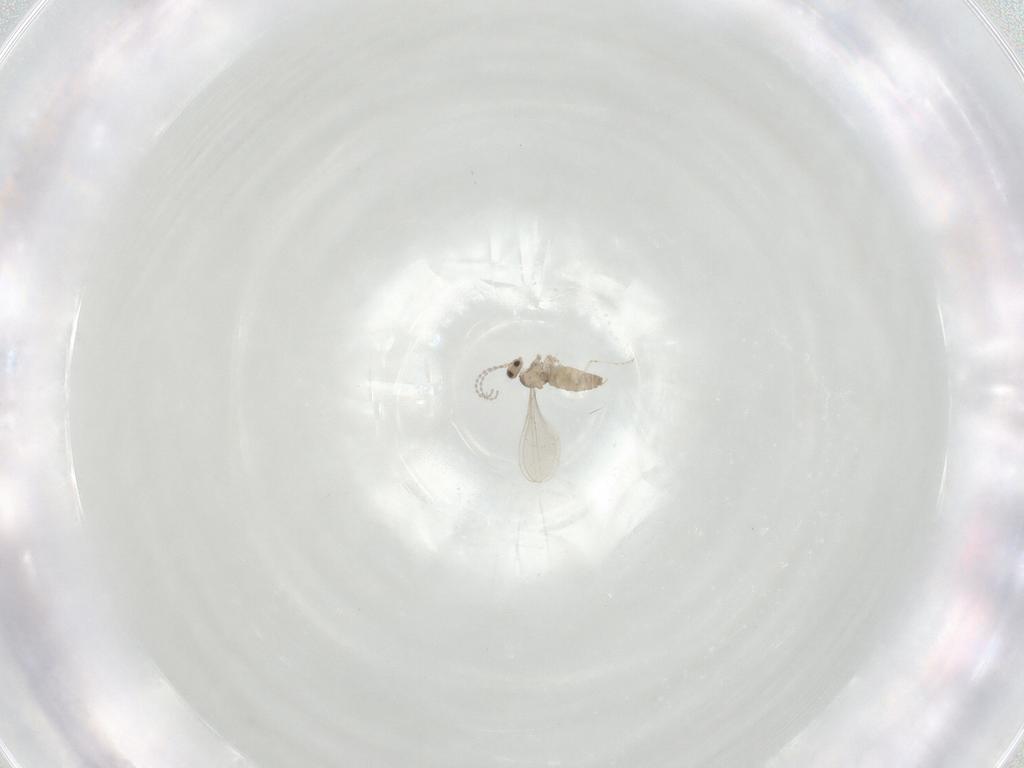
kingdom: Animalia
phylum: Arthropoda
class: Insecta
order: Diptera
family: Cecidomyiidae
